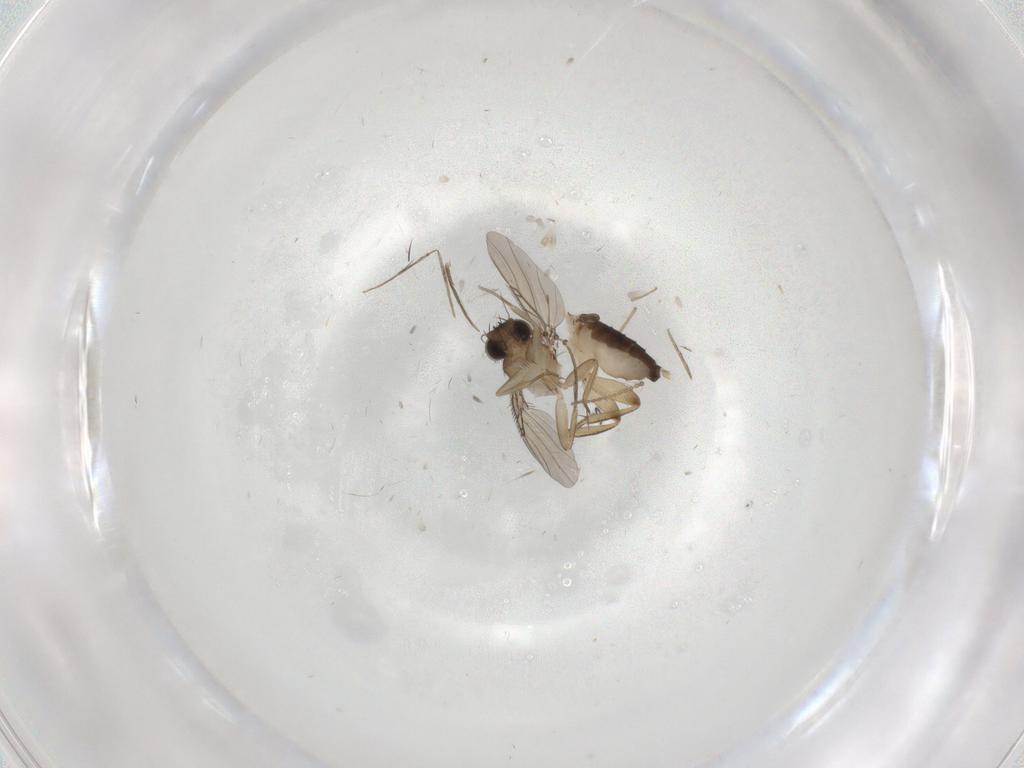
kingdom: Animalia
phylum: Arthropoda
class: Insecta
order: Diptera
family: Phoridae
